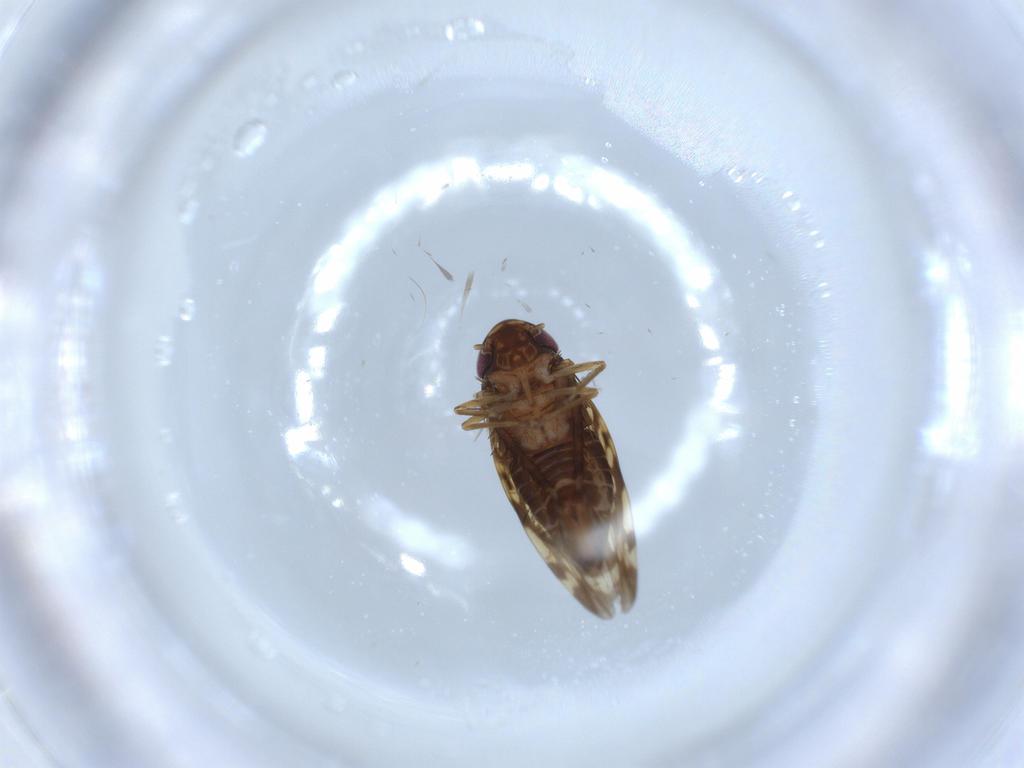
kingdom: Animalia
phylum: Arthropoda
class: Insecta
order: Hemiptera
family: Cicadellidae
